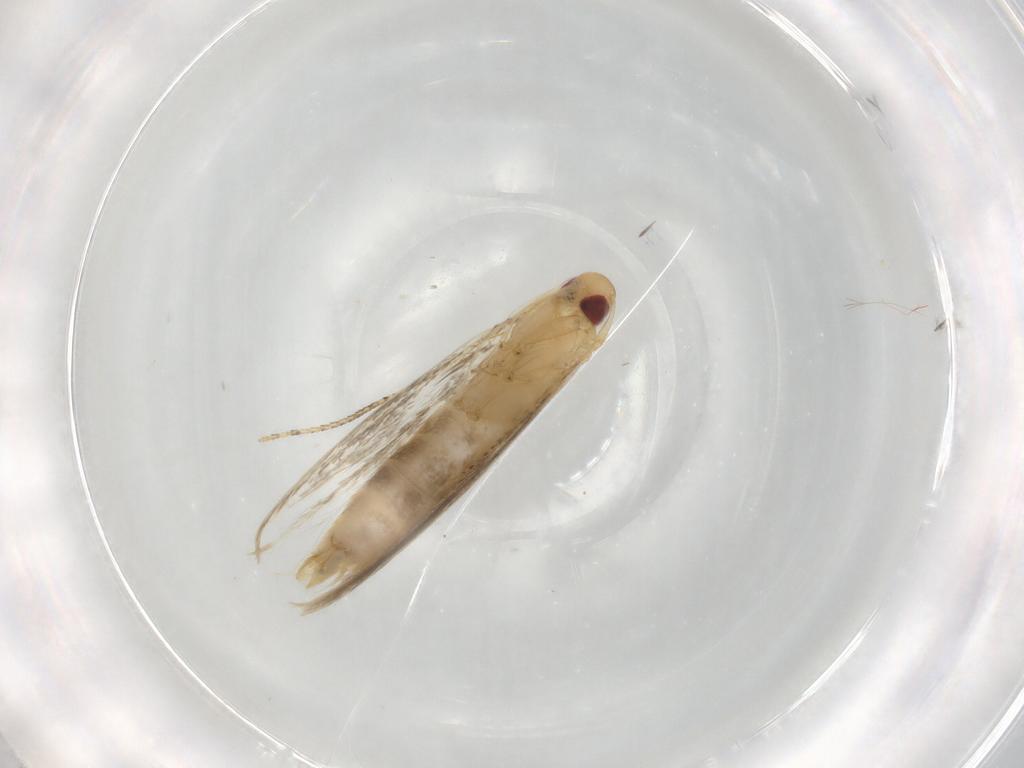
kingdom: Animalia
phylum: Arthropoda
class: Insecta
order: Lepidoptera
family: Cosmopterigidae
